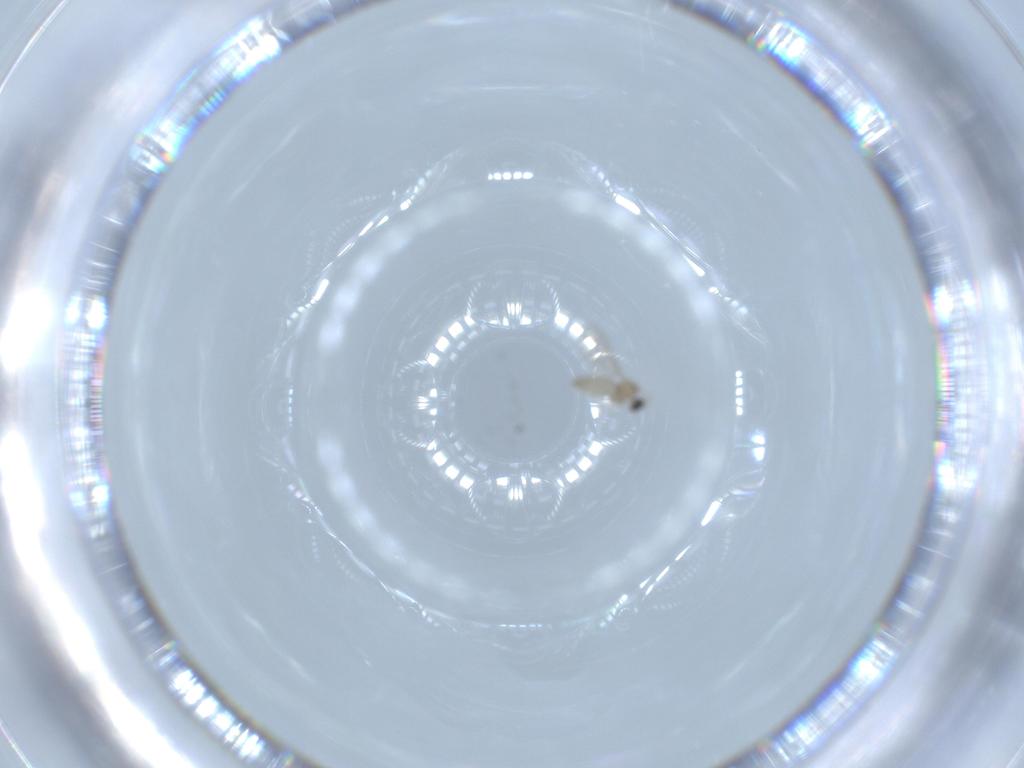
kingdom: Animalia
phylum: Arthropoda
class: Insecta
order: Diptera
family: Cecidomyiidae
